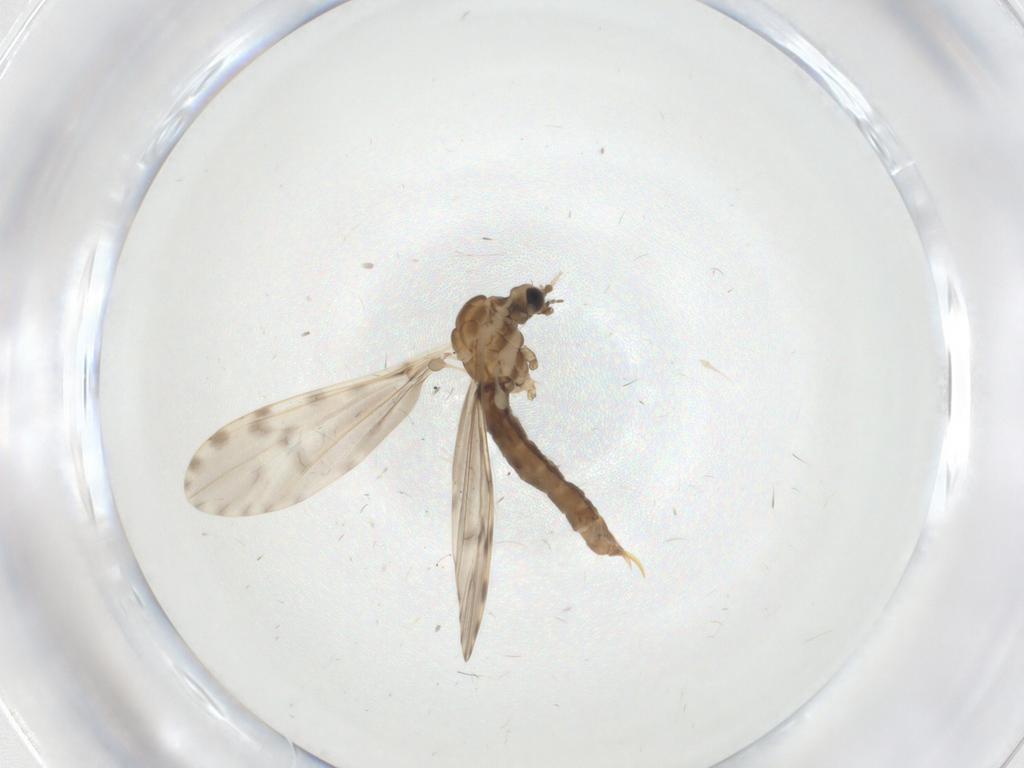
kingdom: Animalia
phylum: Arthropoda
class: Insecta
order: Diptera
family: Limoniidae
